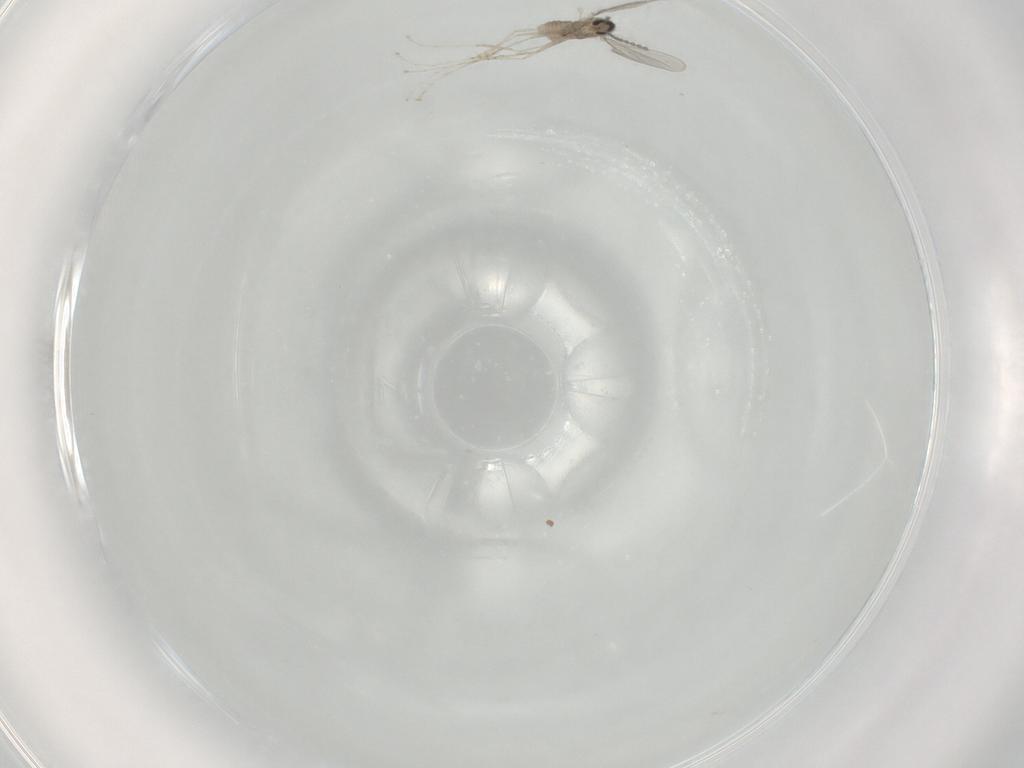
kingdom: Animalia
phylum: Arthropoda
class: Insecta
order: Diptera
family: Cecidomyiidae
